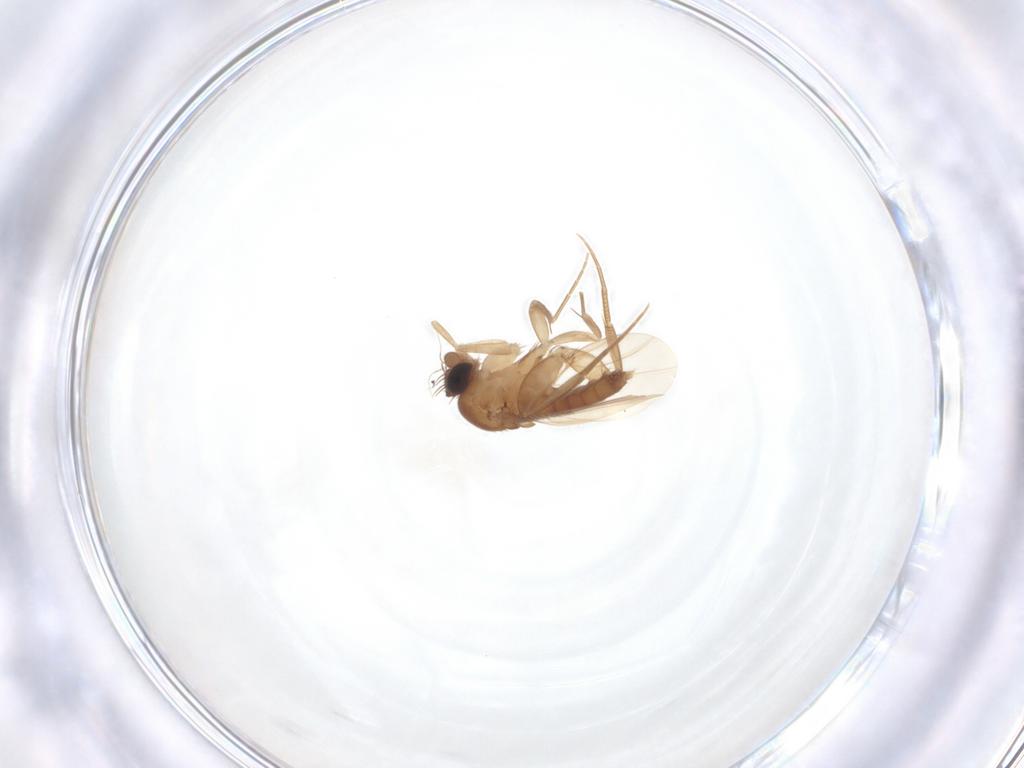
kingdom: Animalia
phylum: Arthropoda
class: Insecta
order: Diptera
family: Phoridae
